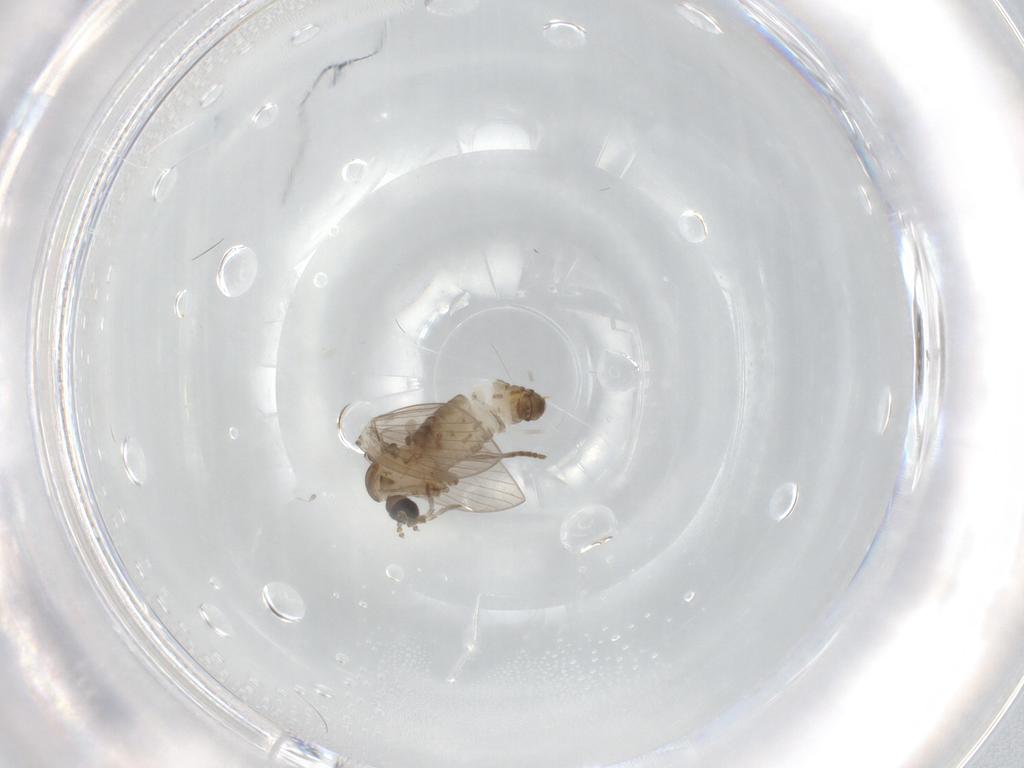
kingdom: Animalia
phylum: Arthropoda
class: Insecta
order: Diptera
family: Psychodidae
